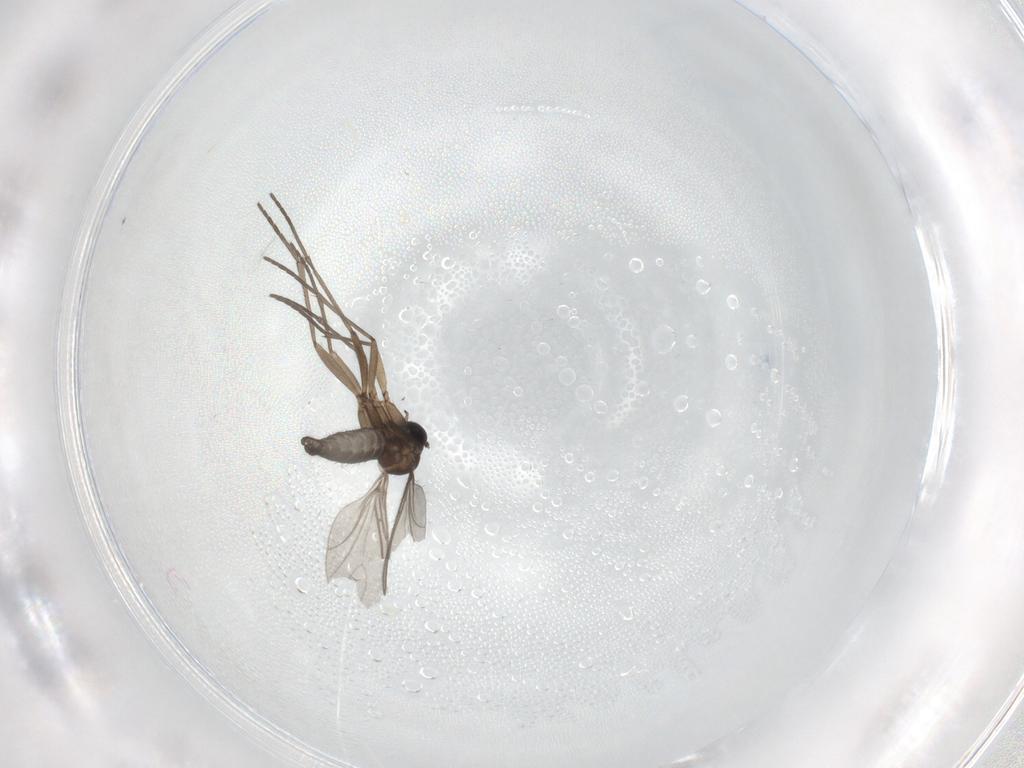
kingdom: Animalia
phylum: Arthropoda
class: Insecta
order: Diptera
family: Sciaridae
